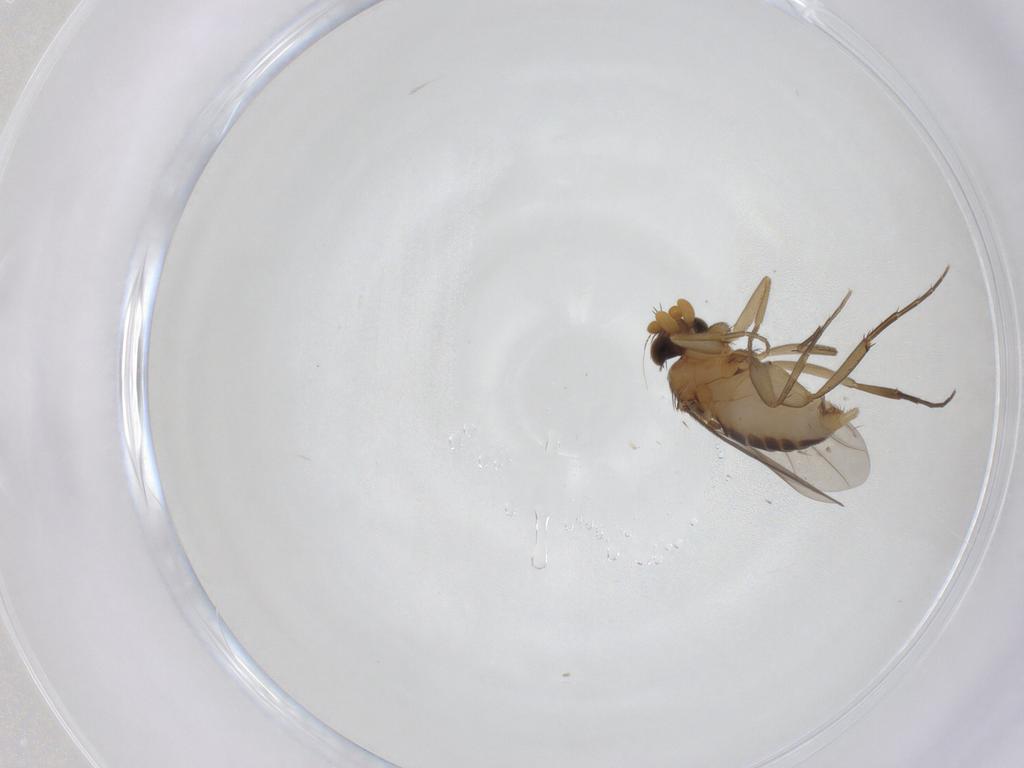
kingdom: Animalia
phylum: Arthropoda
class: Insecta
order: Diptera
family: Phoridae
